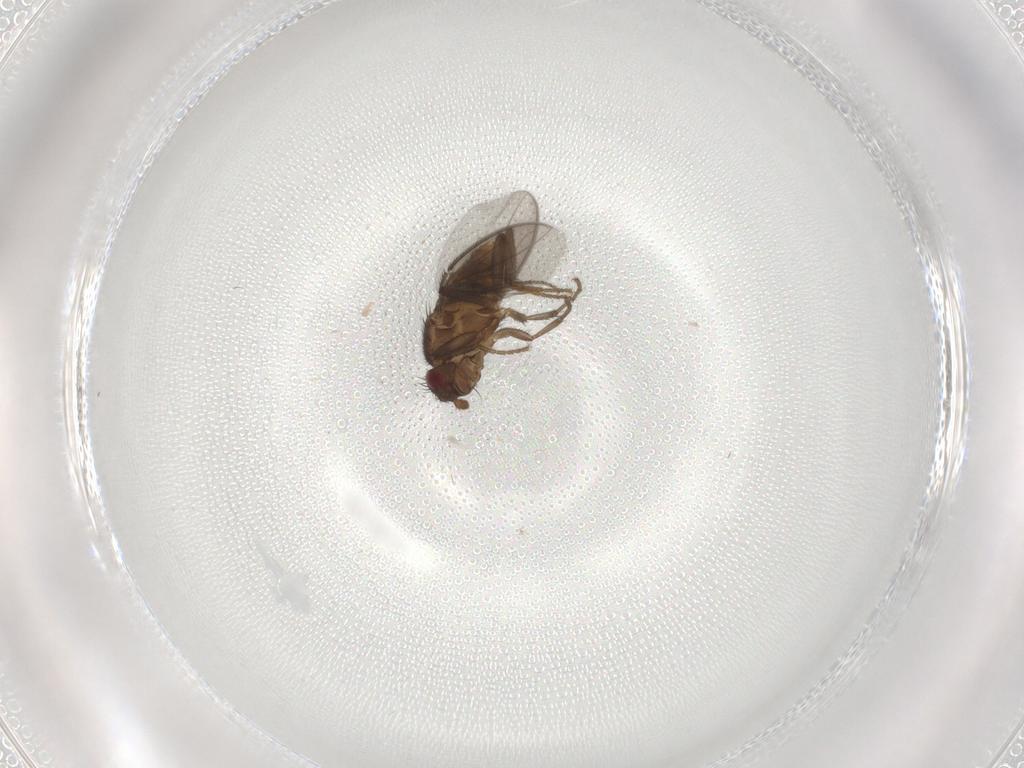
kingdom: Animalia
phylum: Arthropoda
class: Insecta
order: Diptera
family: Sphaeroceridae
